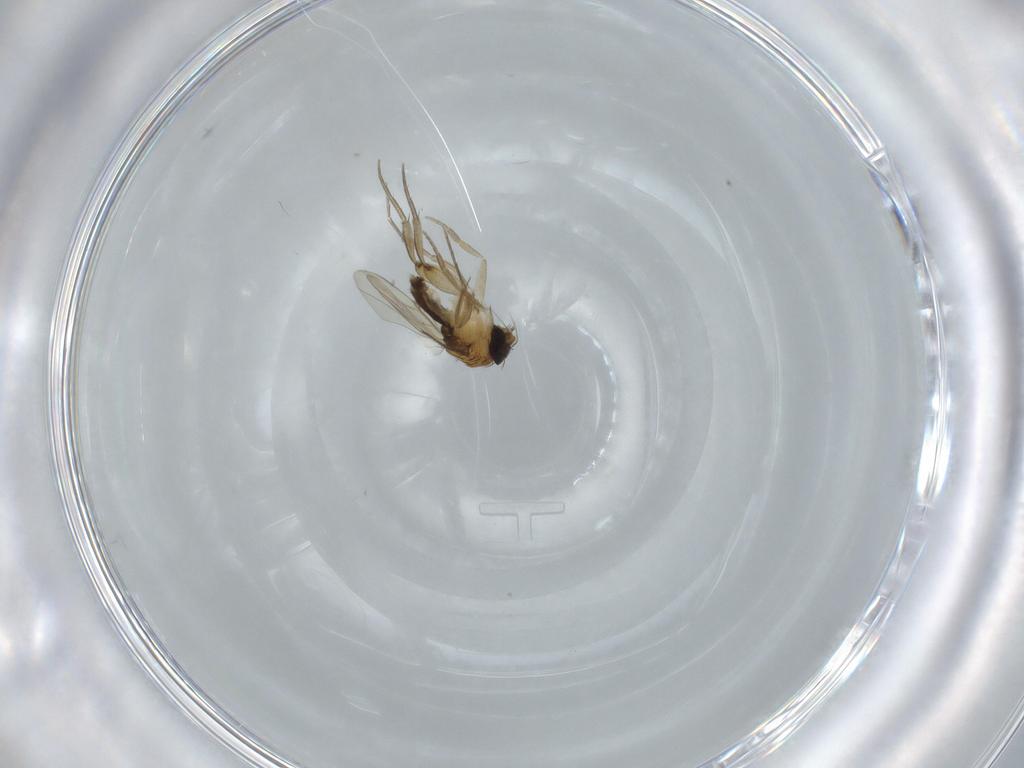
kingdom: Animalia
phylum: Arthropoda
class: Insecta
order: Diptera
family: Phoridae
